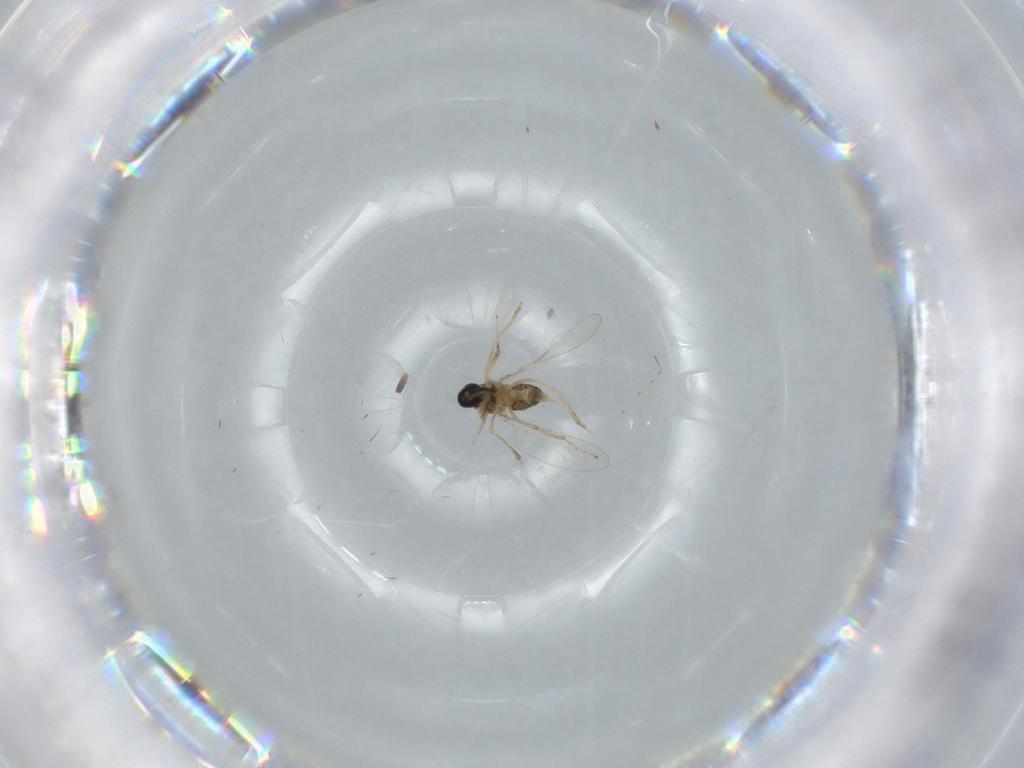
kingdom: Animalia
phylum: Arthropoda
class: Insecta
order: Diptera
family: Cecidomyiidae
